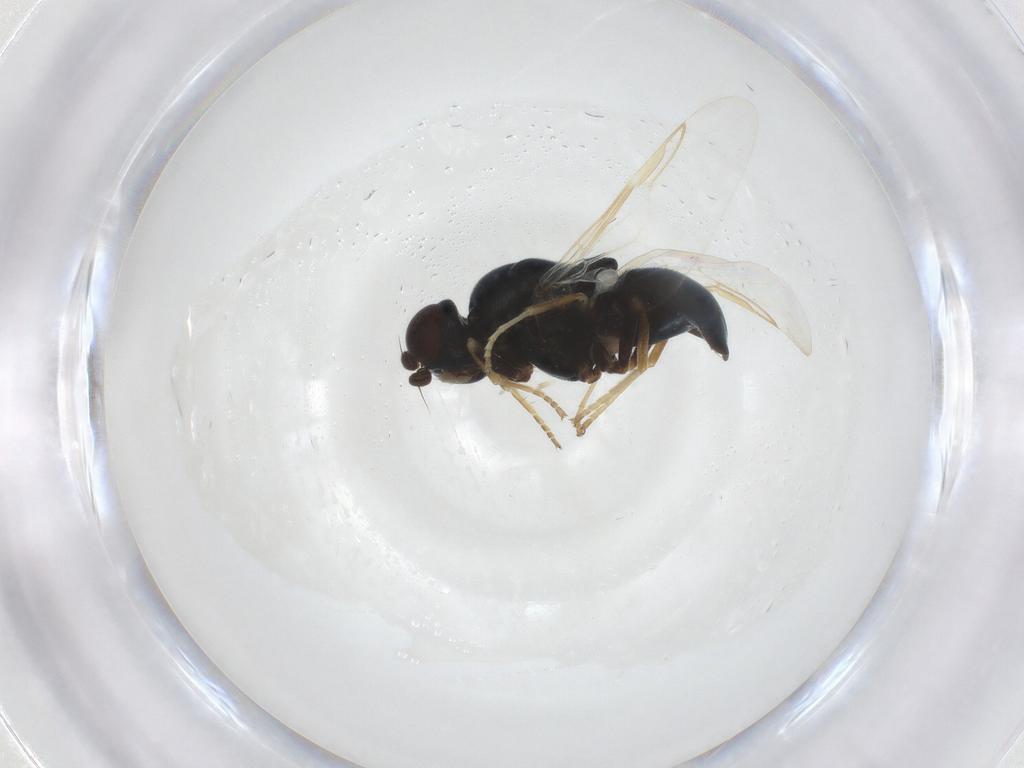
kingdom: Animalia
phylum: Arthropoda
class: Insecta
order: Diptera
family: Stratiomyidae
